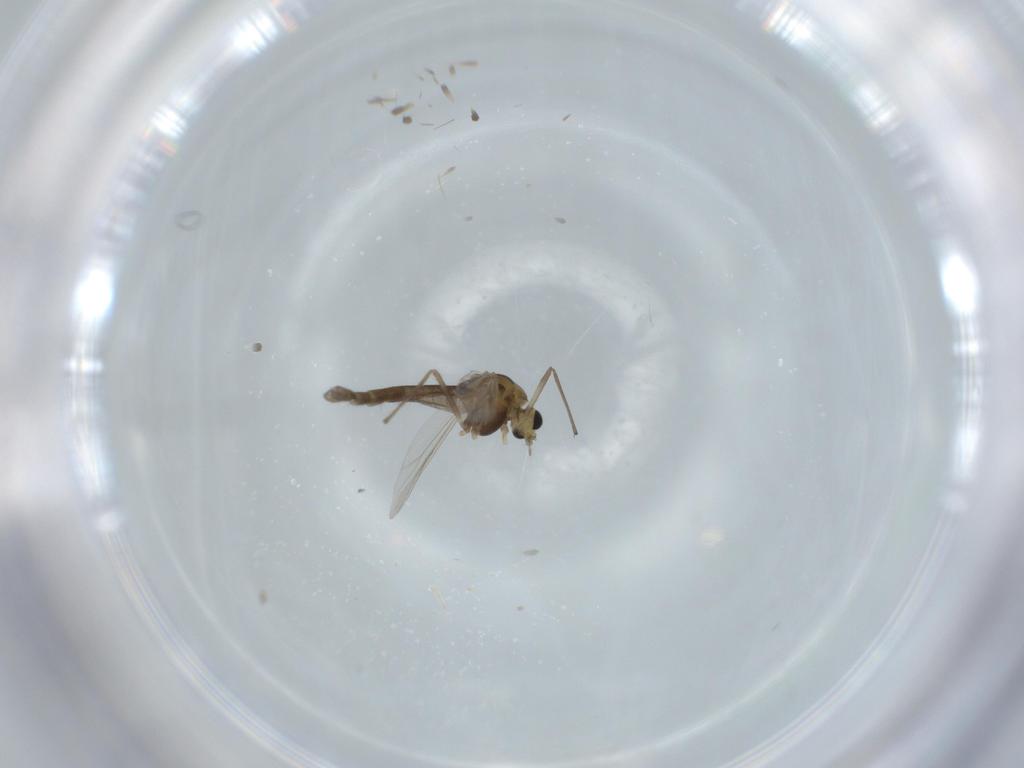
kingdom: Animalia
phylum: Arthropoda
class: Insecta
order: Diptera
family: Chironomidae
